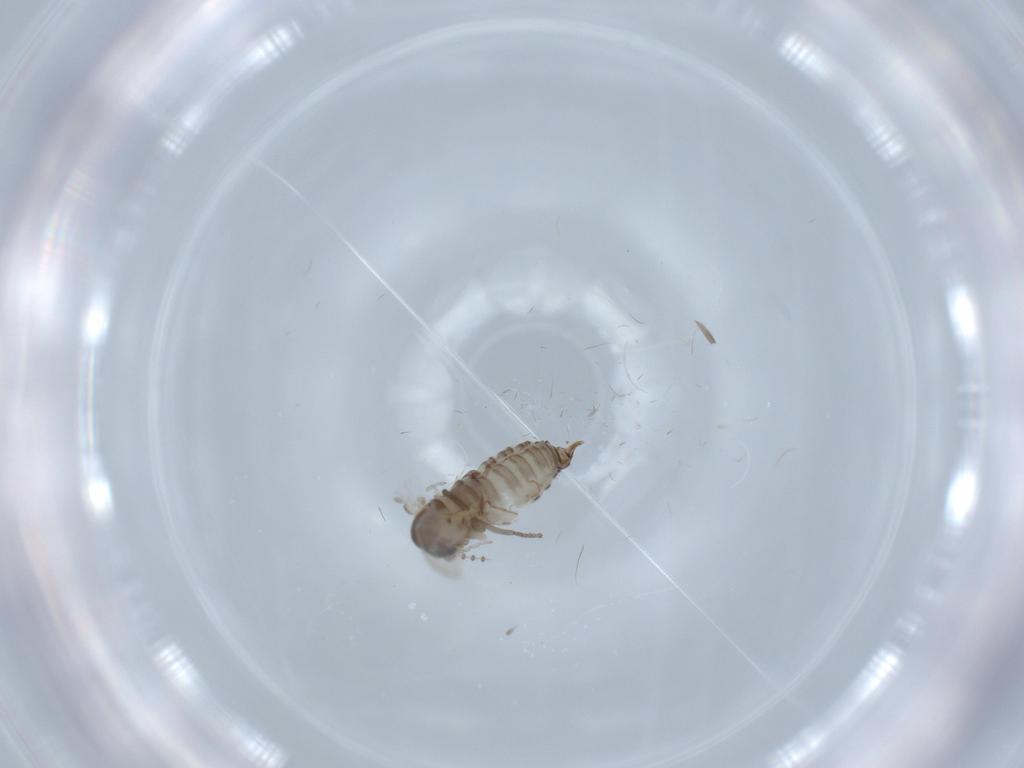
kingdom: Animalia
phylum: Arthropoda
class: Insecta
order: Diptera
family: Psychodidae
